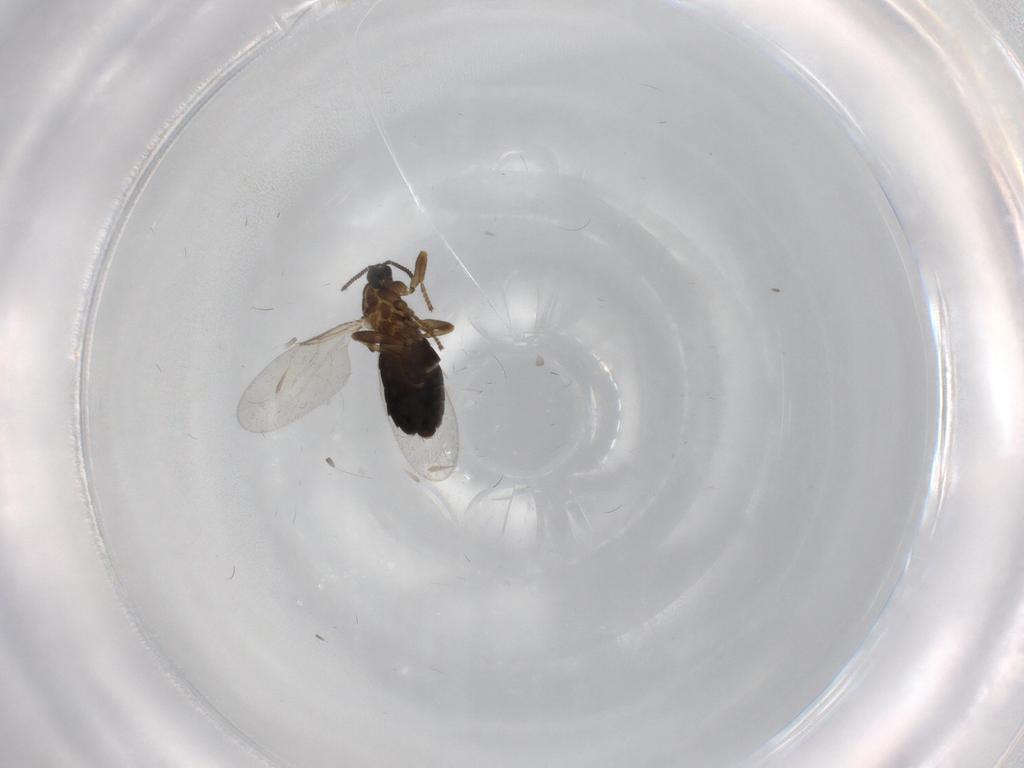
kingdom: Animalia
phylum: Arthropoda
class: Insecta
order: Diptera
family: Scatopsidae
